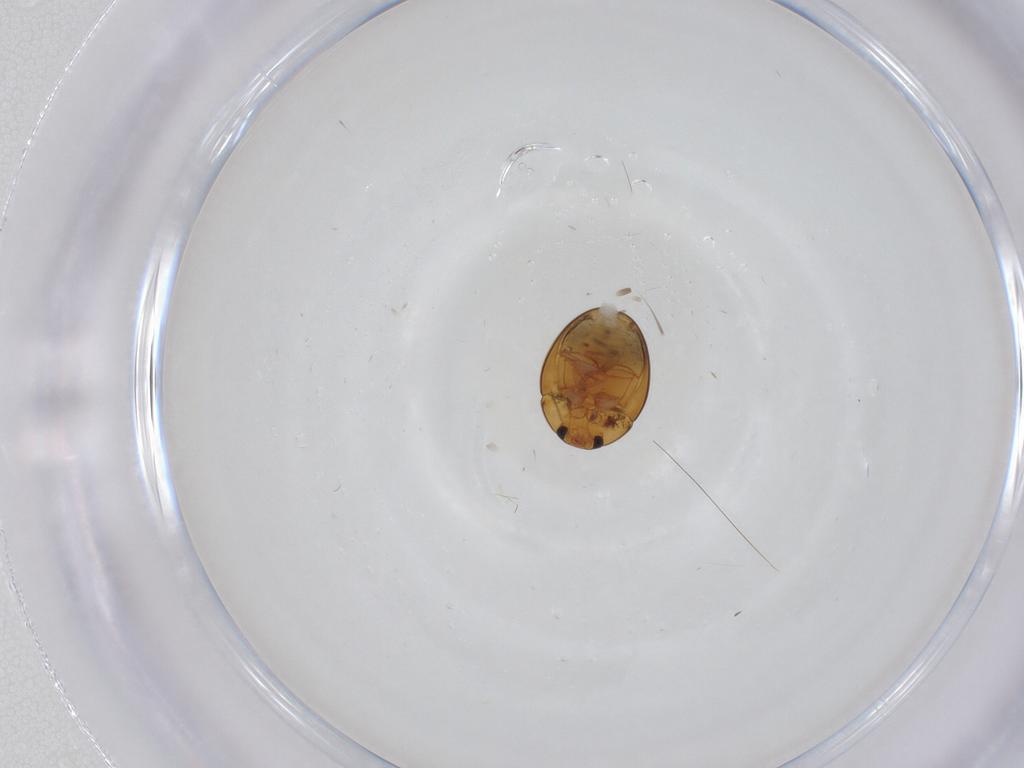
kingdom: Animalia
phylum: Arthropoda
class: Insecta
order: Coleoptera
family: Phalacridae
